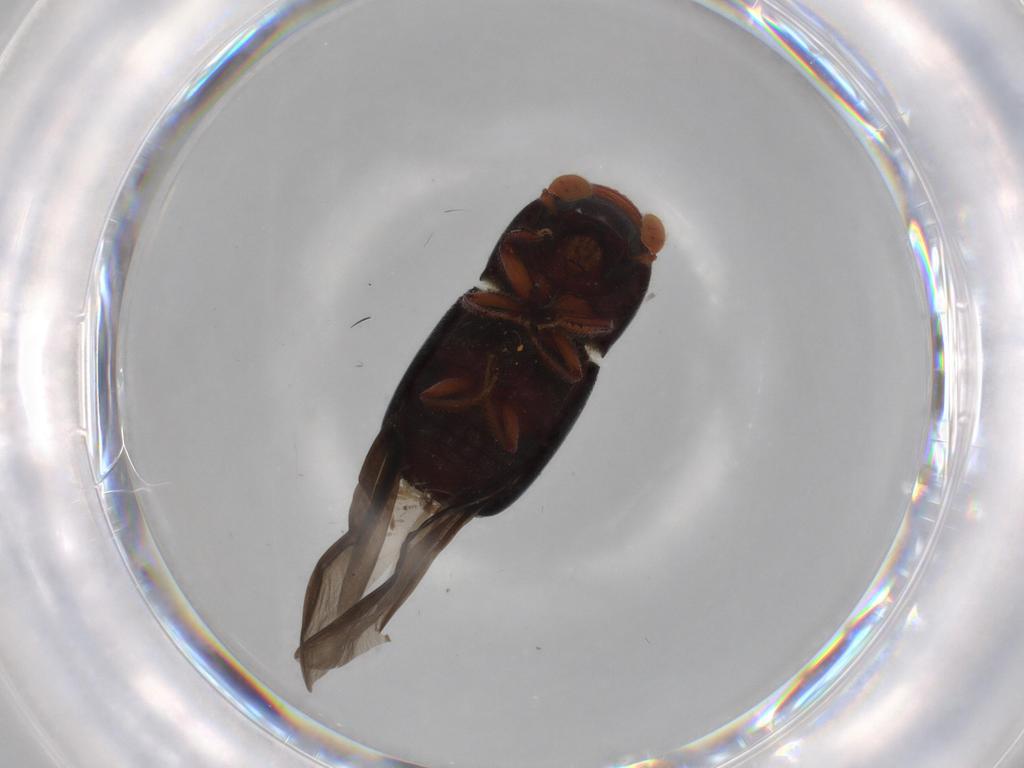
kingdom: Animalia
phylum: Arthropoda
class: Insecta
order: Coleoptera
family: Curculionidae
